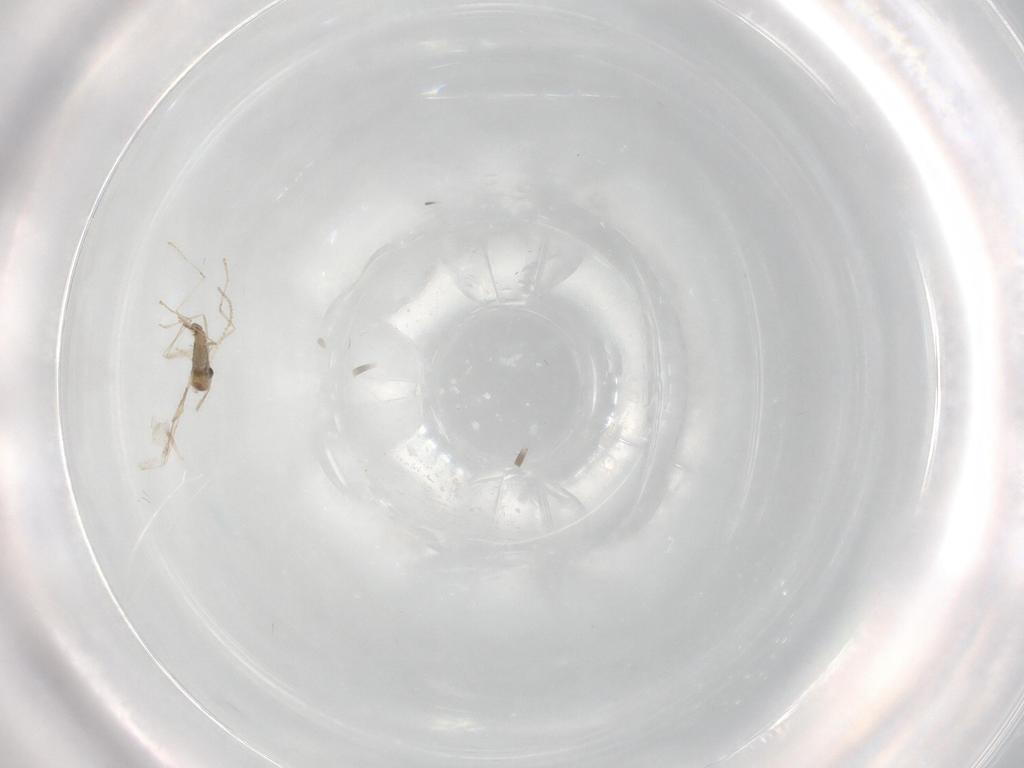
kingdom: Animalia
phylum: Arthropoda
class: Insecta
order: Diptera
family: Cecidomyiidae
